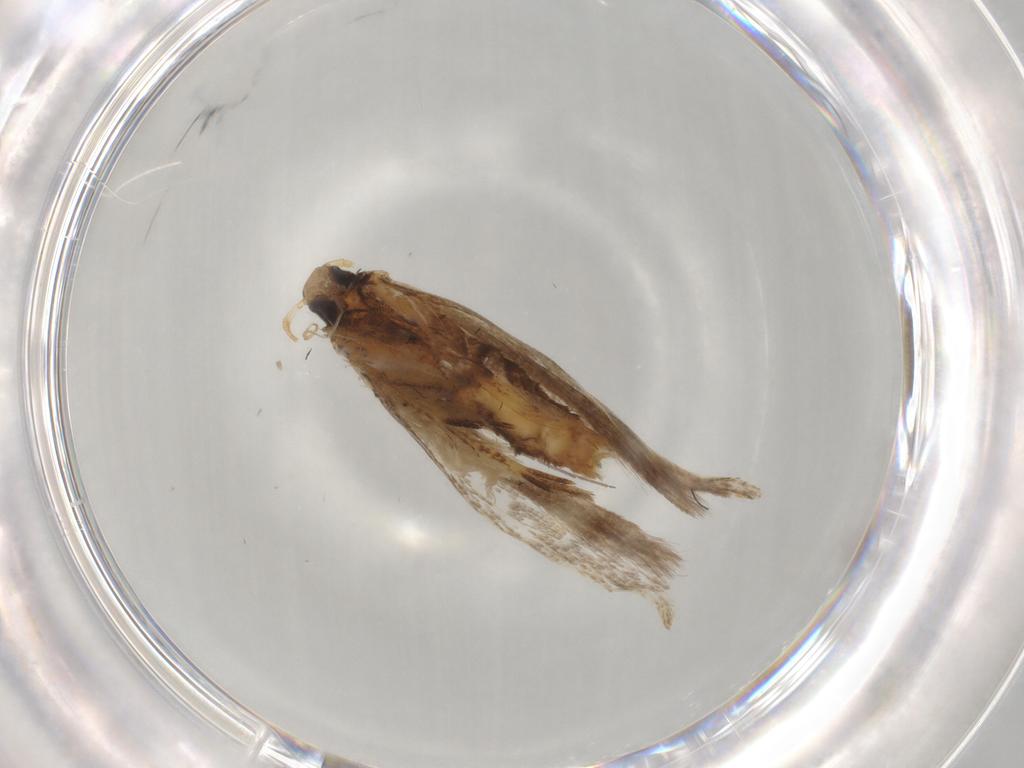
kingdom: Animalia
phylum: Arthropoda
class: Insecta
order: Lepidoptera
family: Crambidae
